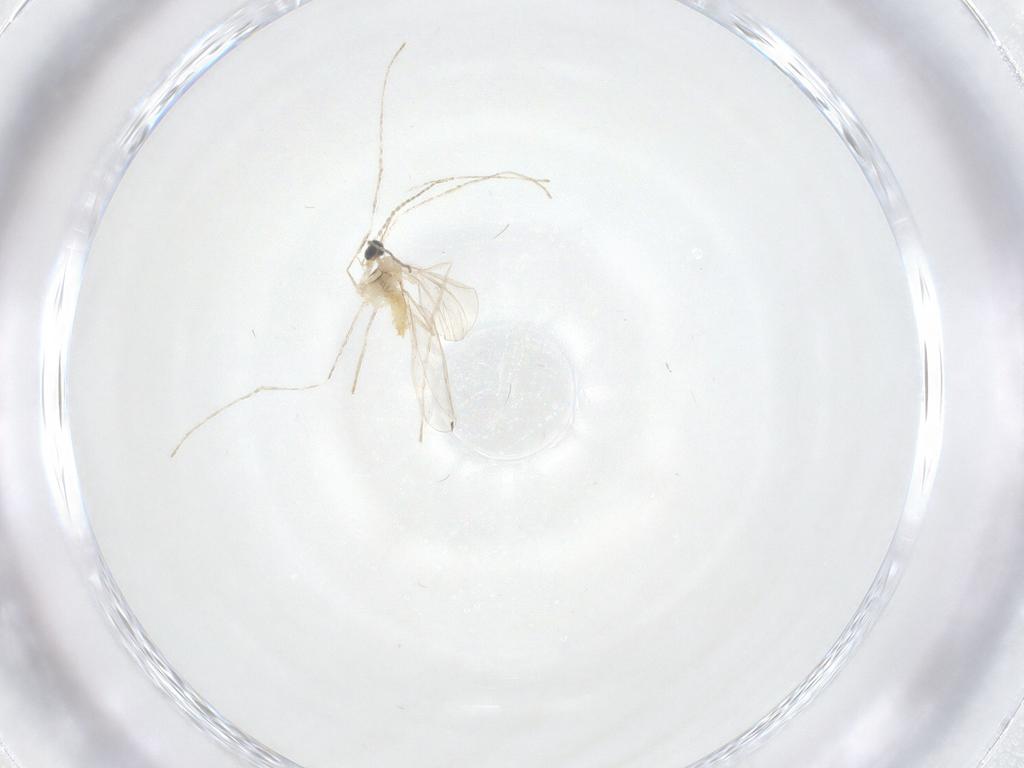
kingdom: Animalia
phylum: Arthropoda
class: Insecta
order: Diptera
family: Cecidomyiidae
